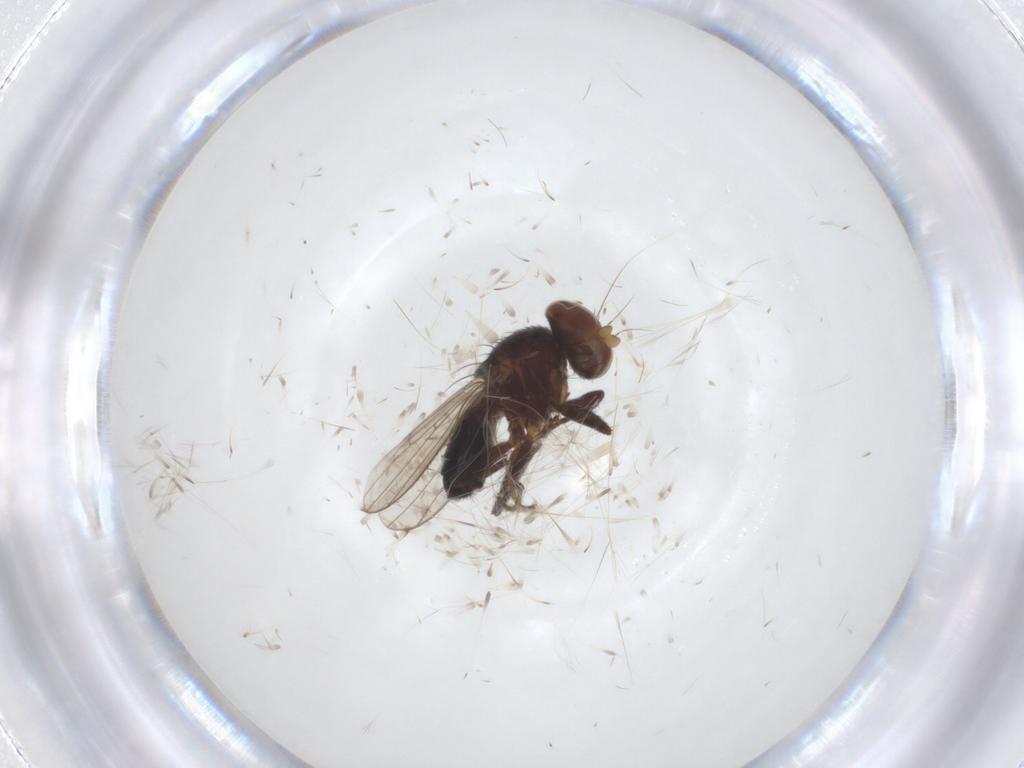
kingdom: Animalia
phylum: Arthropoda
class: Insecta
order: Diptera
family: Heleomyzidae
